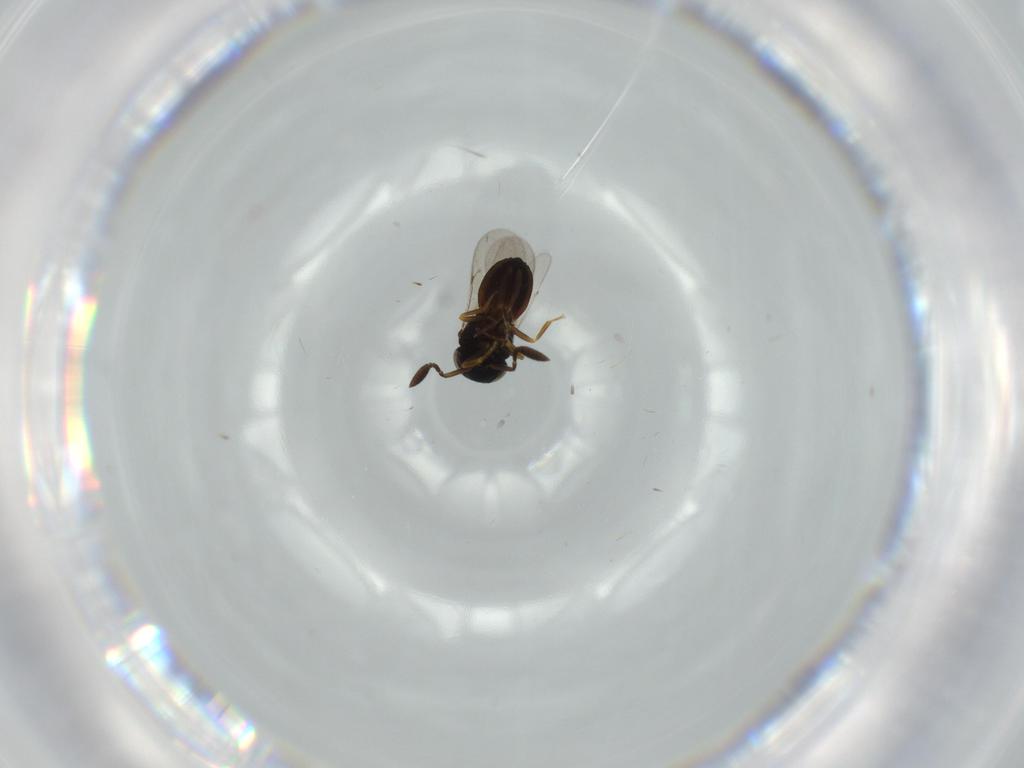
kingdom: Animalia
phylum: Arthropoda
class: Insecta
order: Hymenoptera
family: Scelionidae
